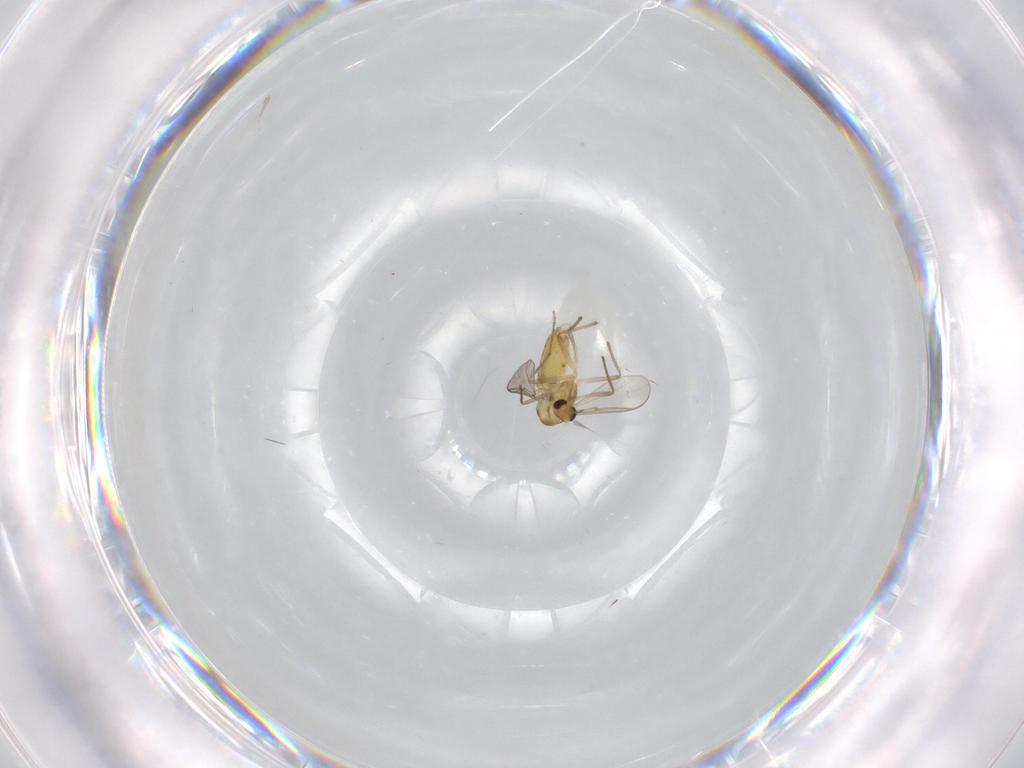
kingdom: Animalia
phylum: Arthropoda
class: Insecta
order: Diptera
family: Chironomidae
